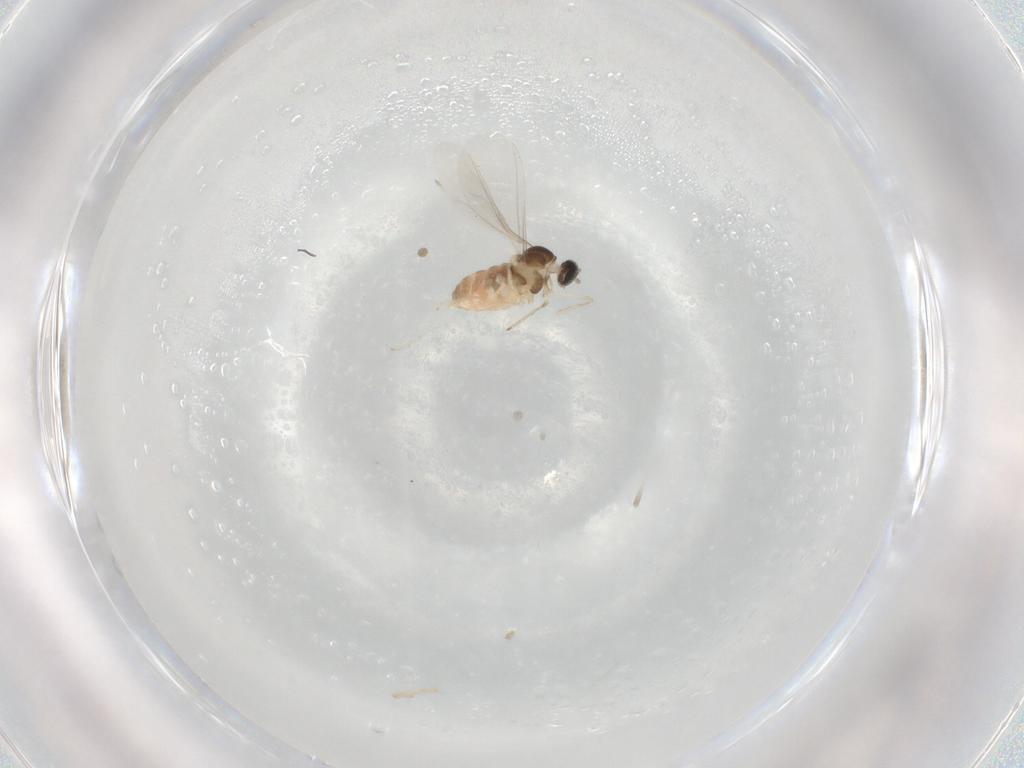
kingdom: Animalia
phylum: Arthropoda
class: Insecta
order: Diptera
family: Cecidomyiidae
